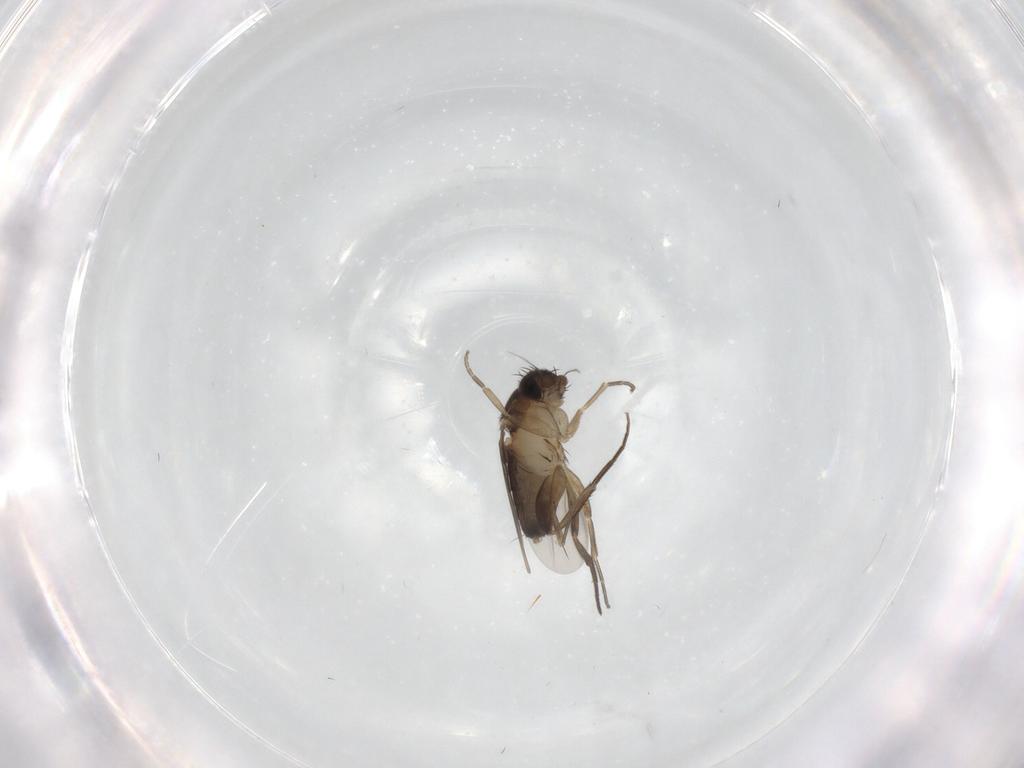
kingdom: Animalia
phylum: Arthropoda
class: Insecta
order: Diptera
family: Phoridae
